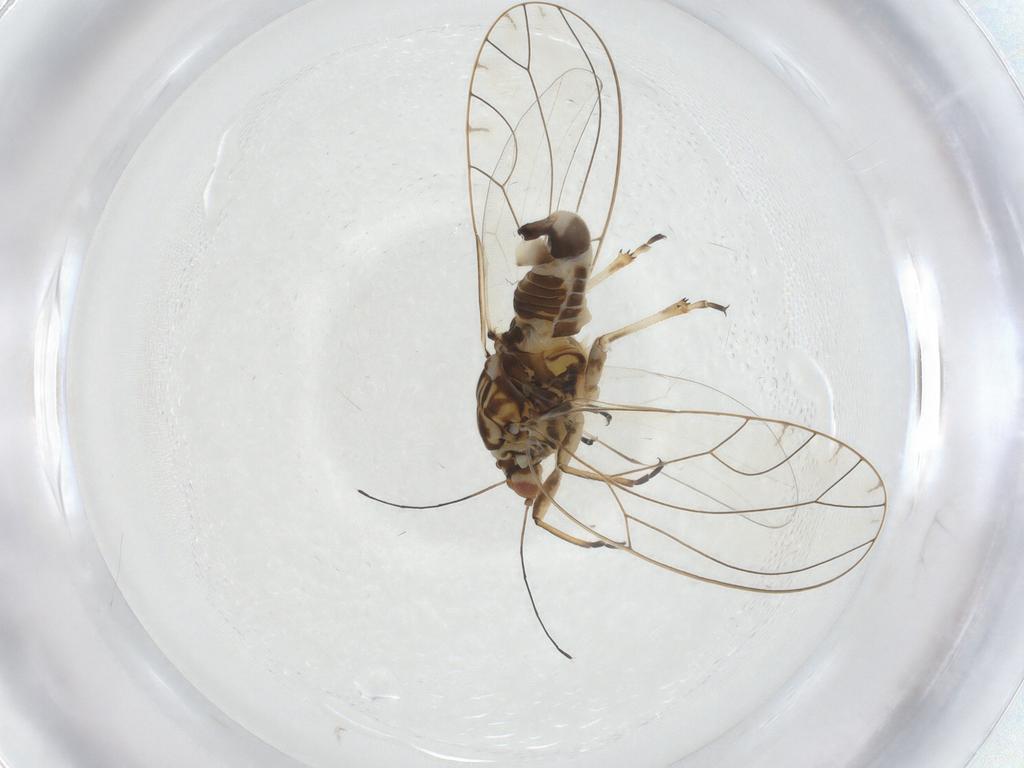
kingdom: Animalia
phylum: Arthropoda
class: Insecta
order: Hemiptera
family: Triozidae
